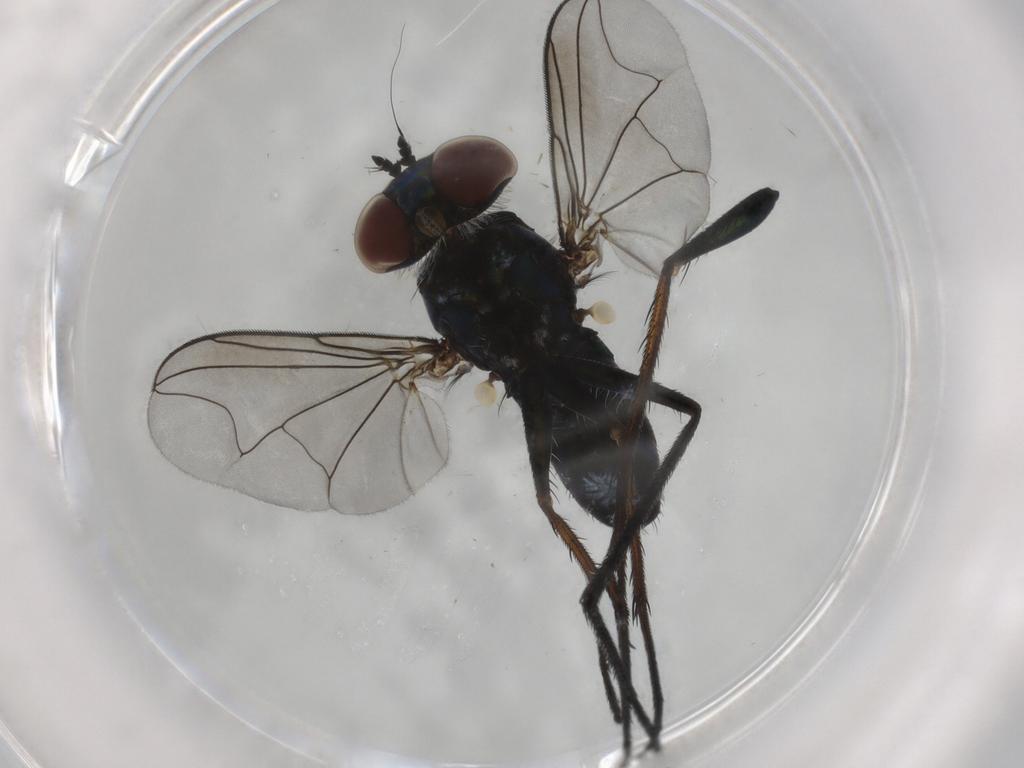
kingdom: Animalia
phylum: Arthropoda
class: Insecta
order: Diptera
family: Dolichopodidae
